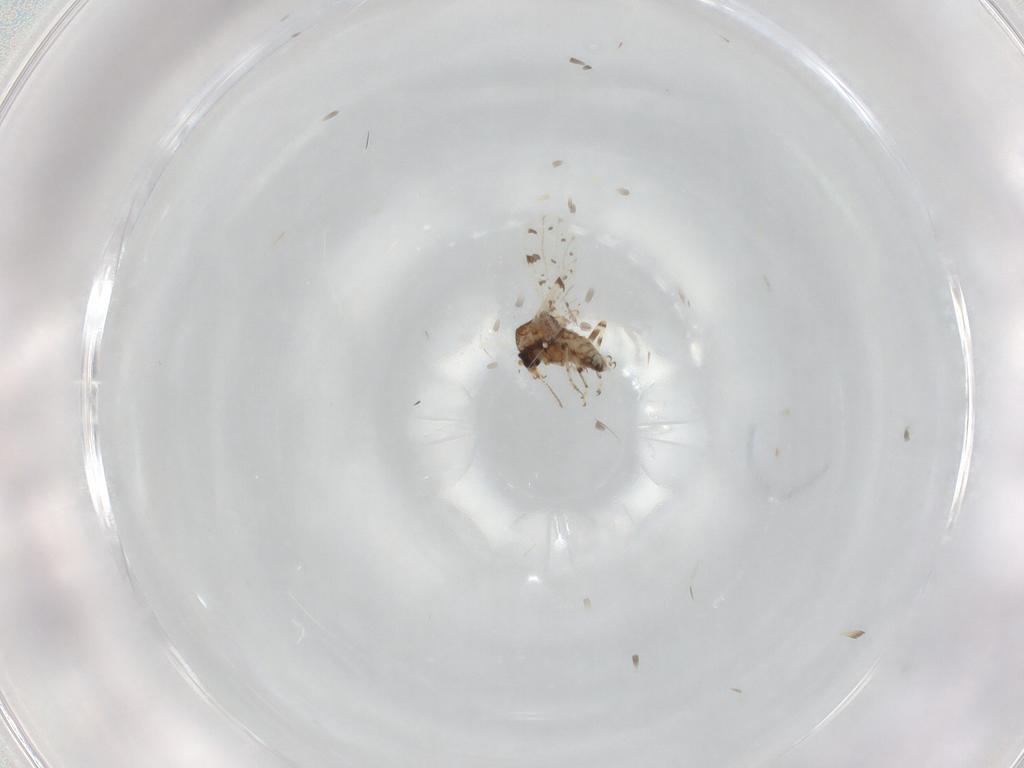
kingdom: Animalia
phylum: Arthropoda
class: Insecta
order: Diptera
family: Ceratopogonidae
